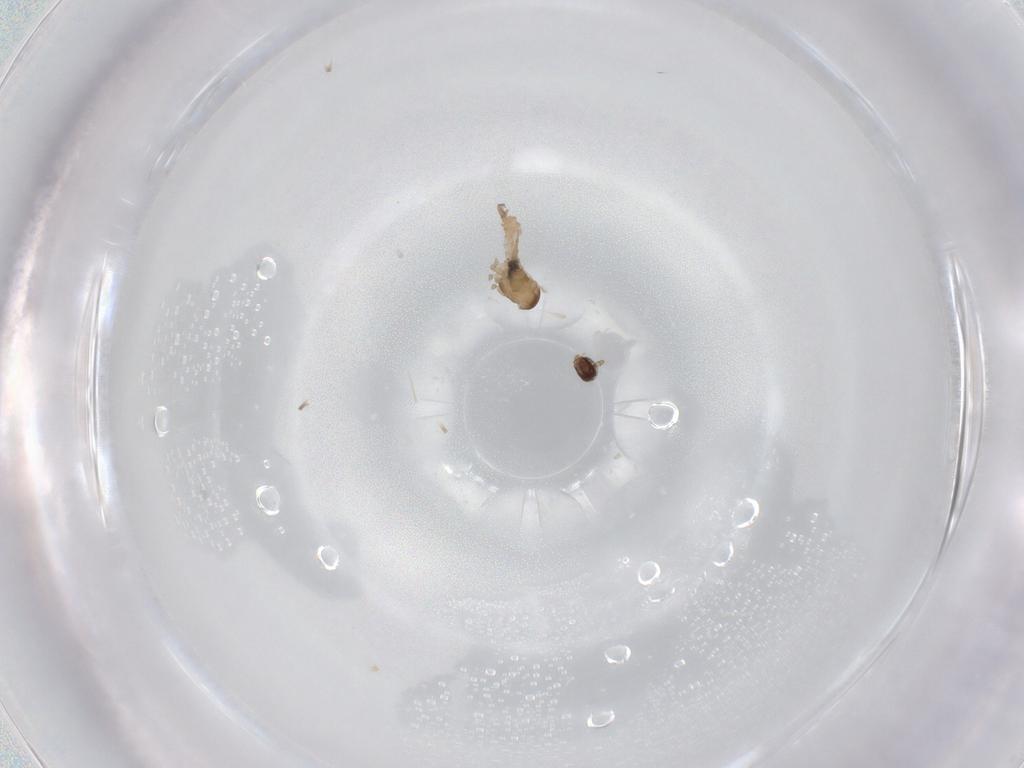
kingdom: Animalia
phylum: Arthropoda
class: Insecta
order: Diptera
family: Cecidomyiidae
